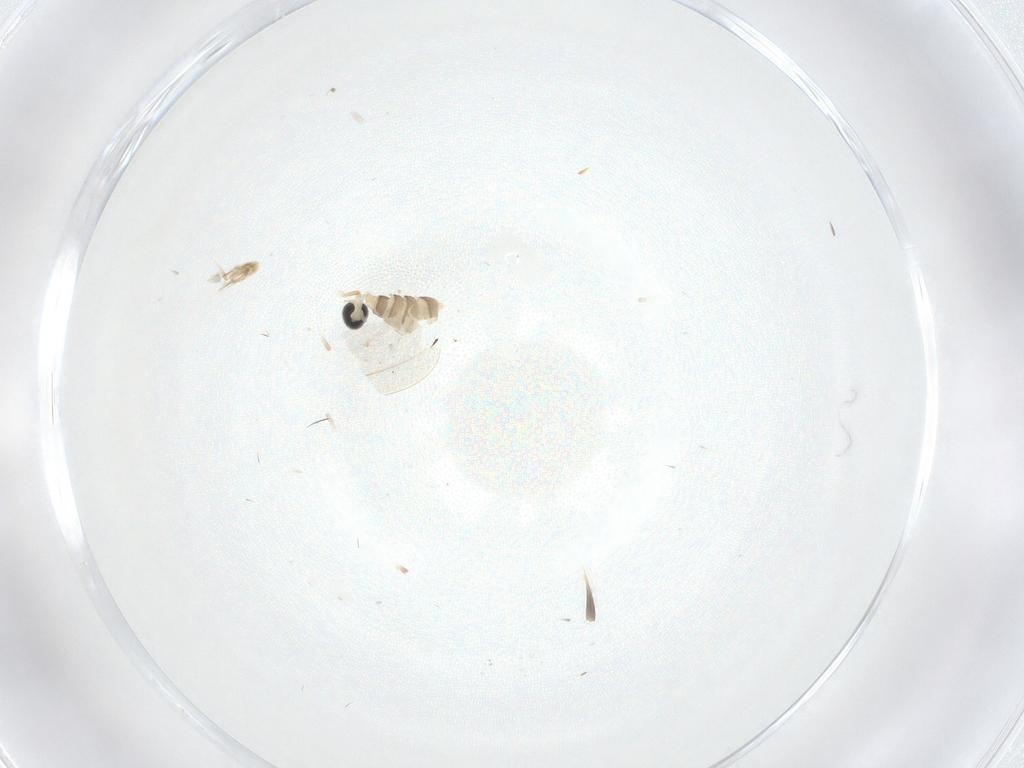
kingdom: Animalia
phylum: Arthropoda
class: Insecta
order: Diptera
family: Cecidomyiidae
